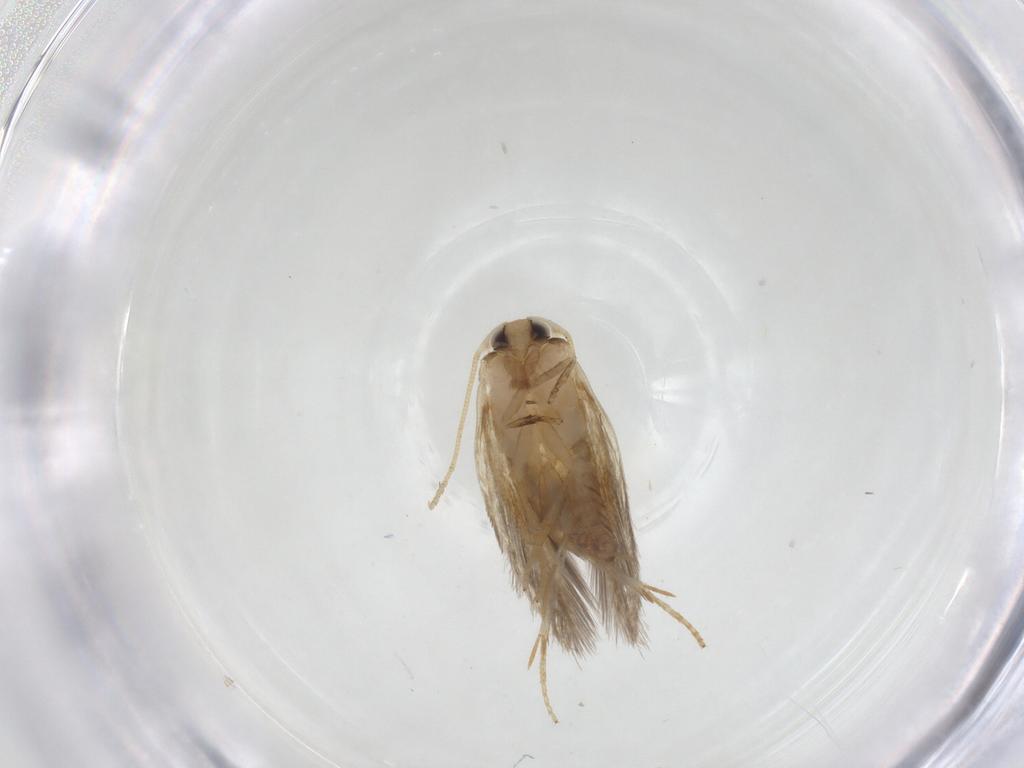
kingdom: Animalia
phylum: Arthropoda
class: Insecta
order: Lepidoptera
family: Nepticulidae
